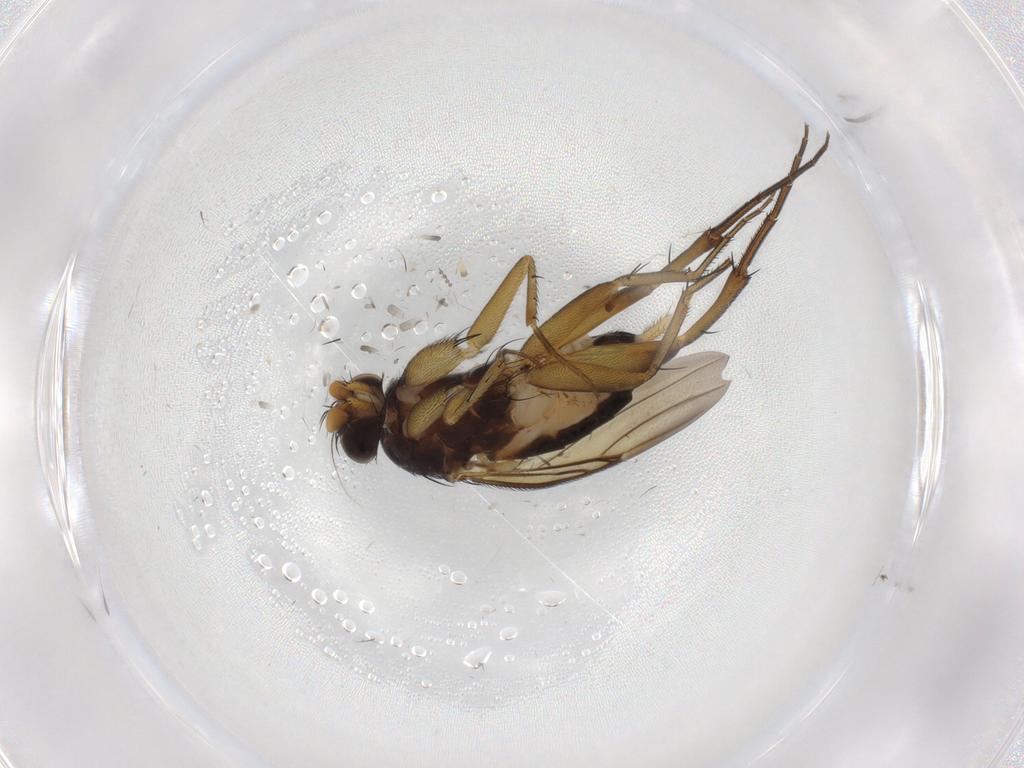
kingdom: Animalia
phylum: Arthropoda
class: Insecta
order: Diptera
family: Phoridae
